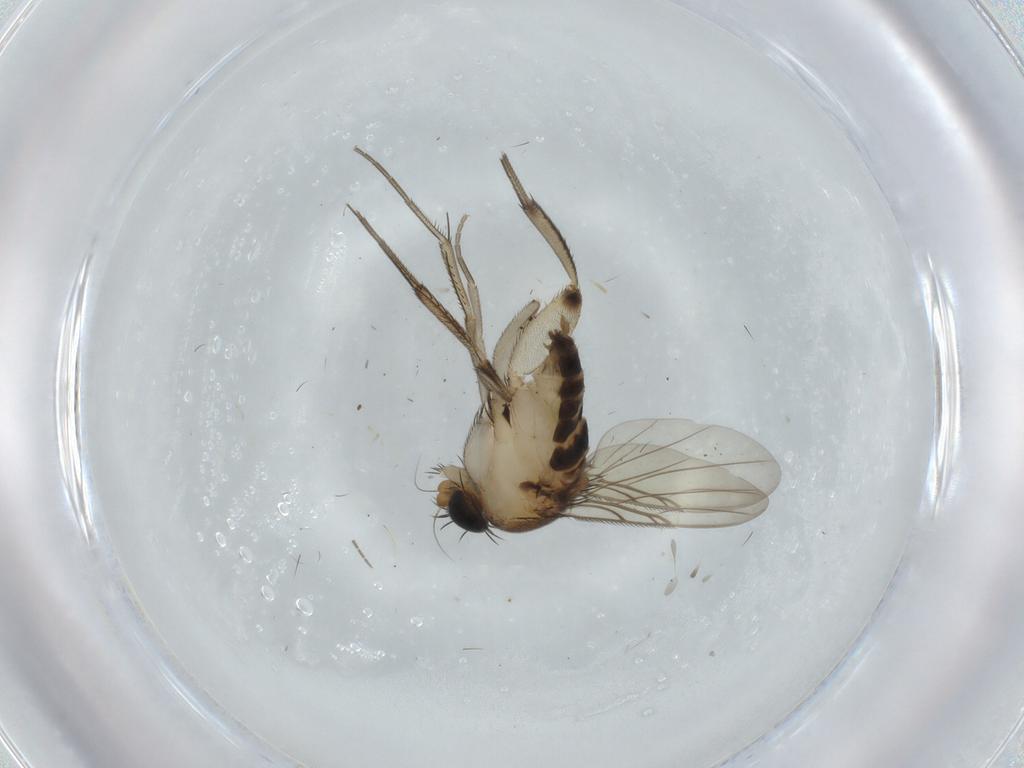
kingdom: Animalia
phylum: Arthropoda
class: Insecta
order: Diptera
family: Phoridae
